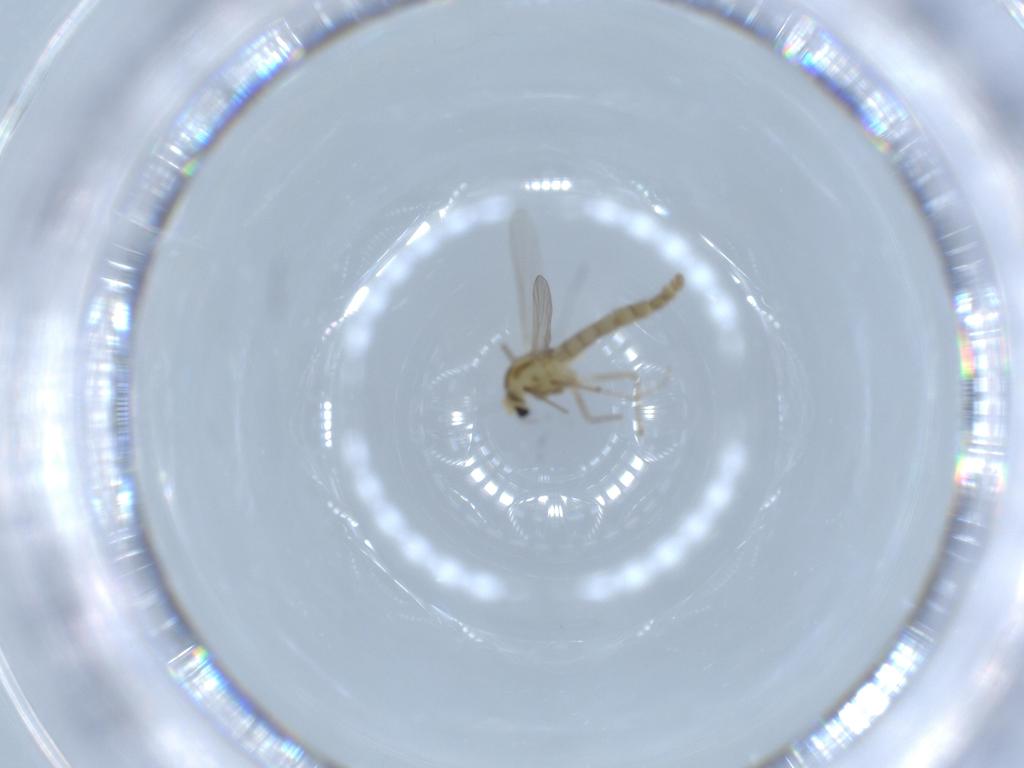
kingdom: Animalia
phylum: Arthropoda
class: Insecta
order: Diptera
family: Chironomidae
